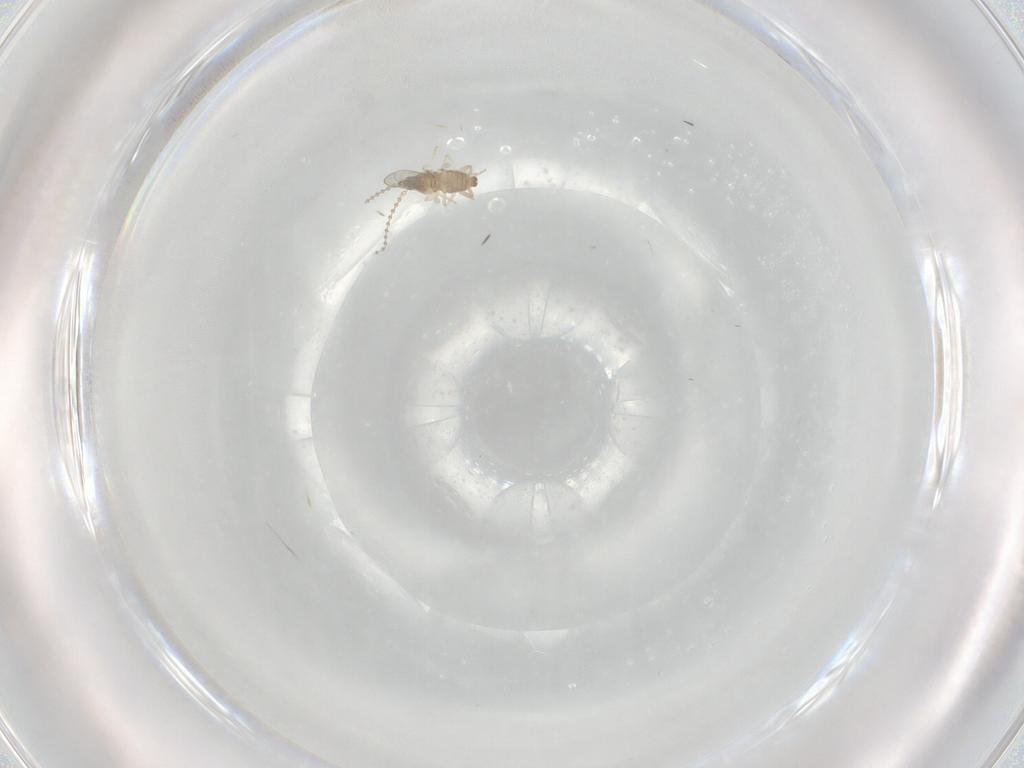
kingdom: Animalia
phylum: Arthropoda
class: Insecta
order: Diptera
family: Cecidomyiidae
